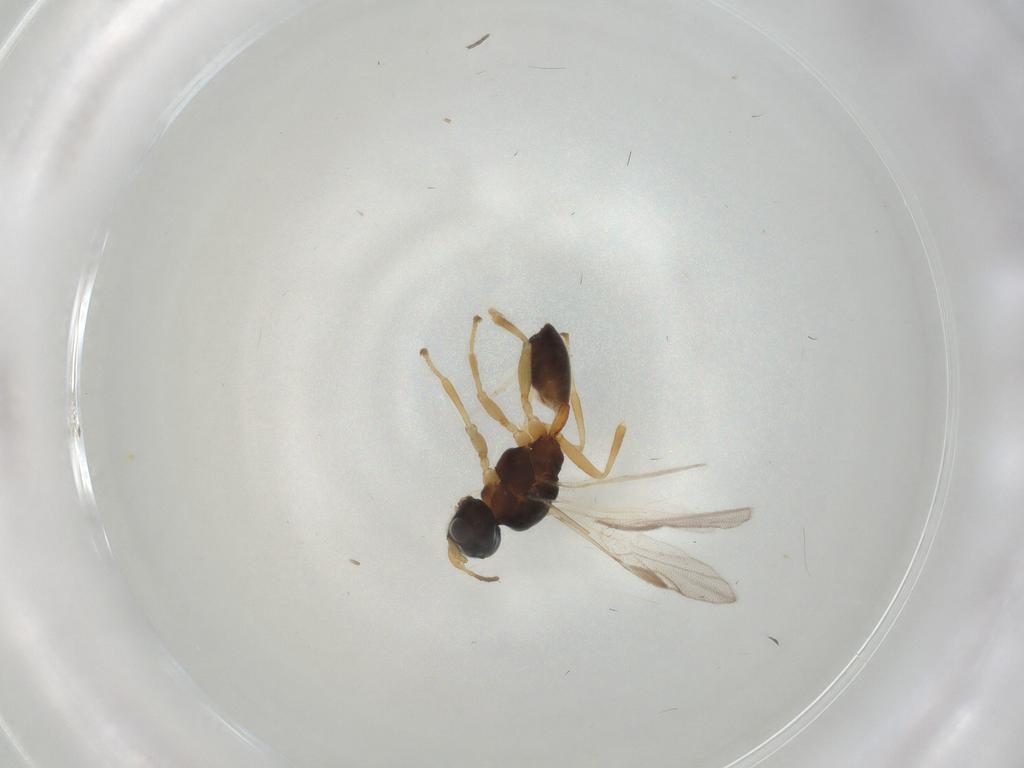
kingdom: Animalia
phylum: Arthropoda
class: Insecta
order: Hymenoptera
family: Braconidae
